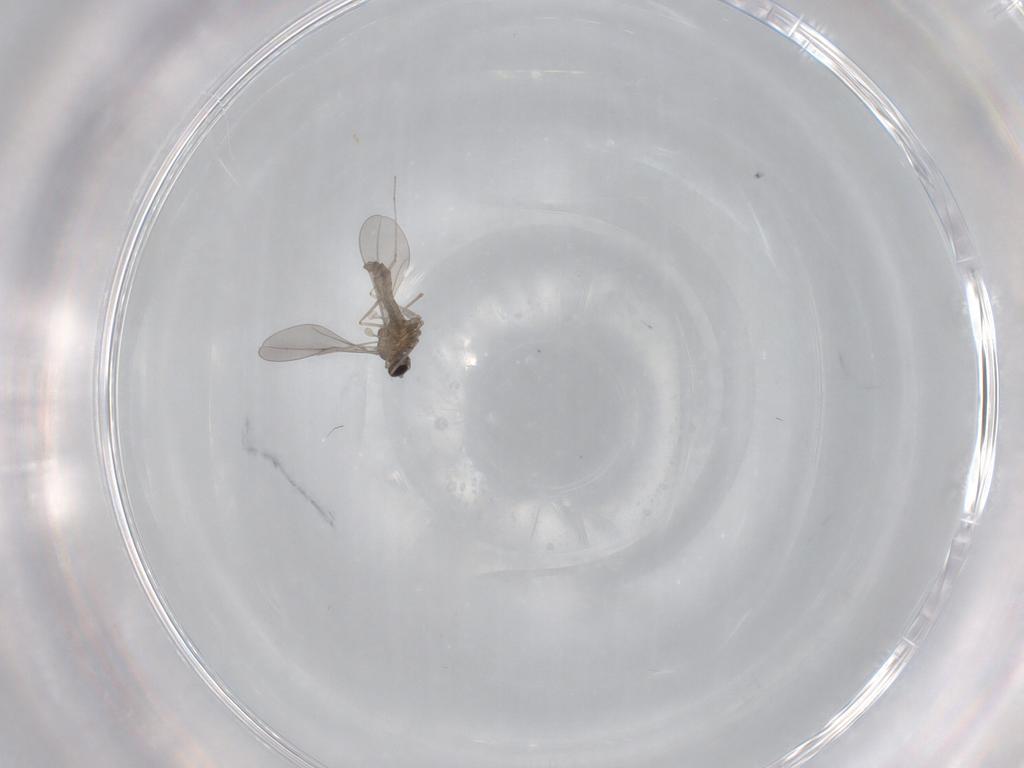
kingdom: Animalia
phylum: Arthropoda
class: Insecta
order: Diptera
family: Cecidomyiidae
